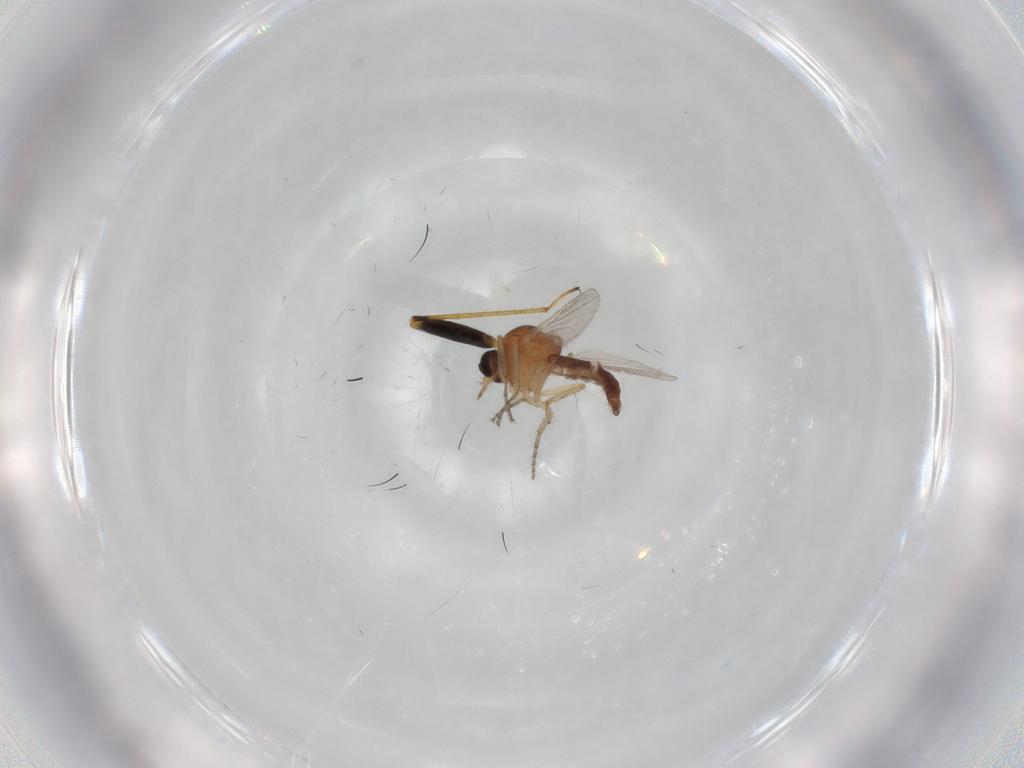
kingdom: Animalia
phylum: Arthropoda
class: Insecta
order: Diptera
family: Ceratopogonidae
